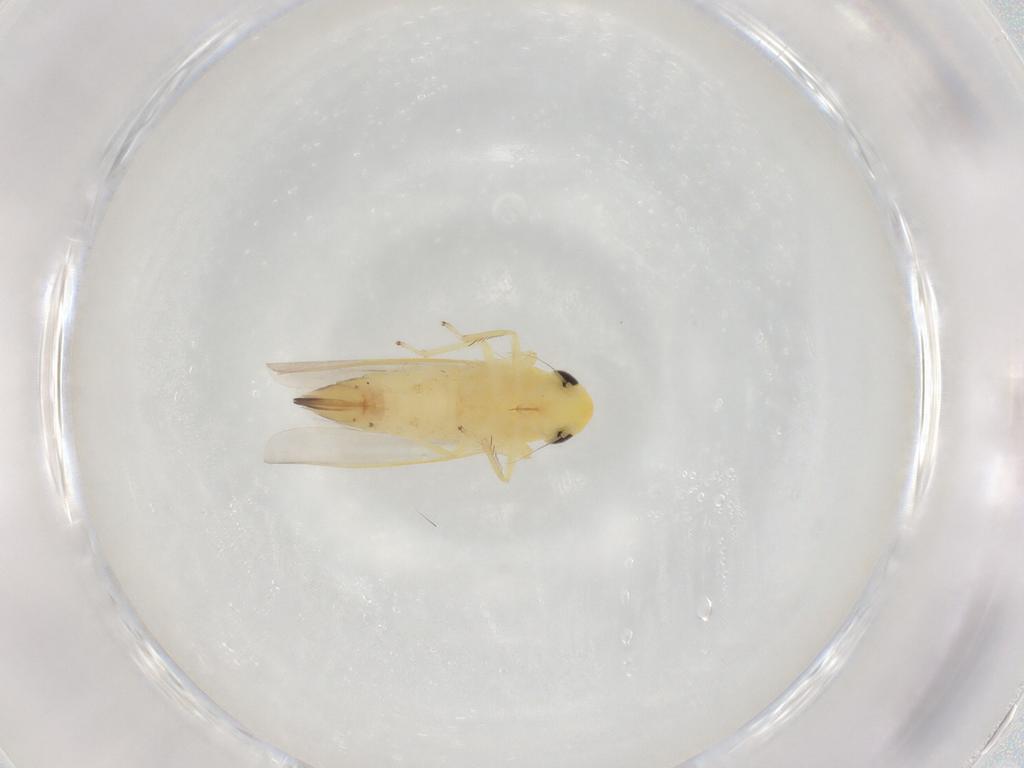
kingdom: Animalia
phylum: Arthropoda
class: Insecta
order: Hemiptera
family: Cicadellidae
